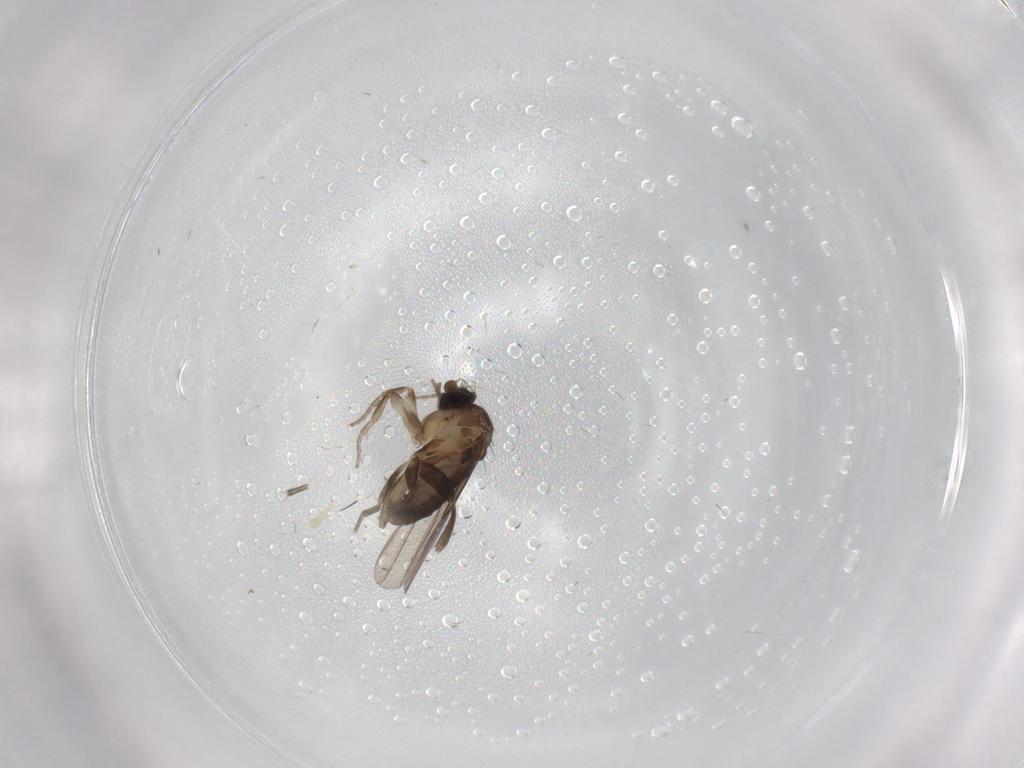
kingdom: Animalia
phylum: Arthropoda
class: Insecta
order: Diptera
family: Phoridae
